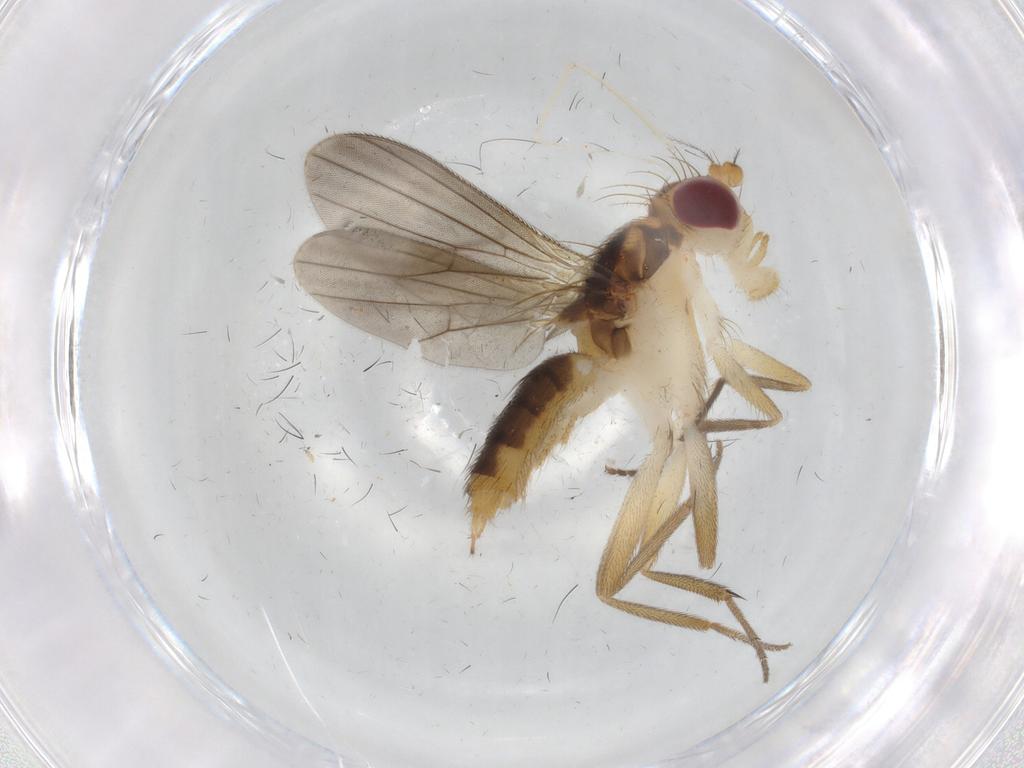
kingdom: Animalia
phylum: Arthropoda
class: Insecta
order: Diptera
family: Clusiidae
